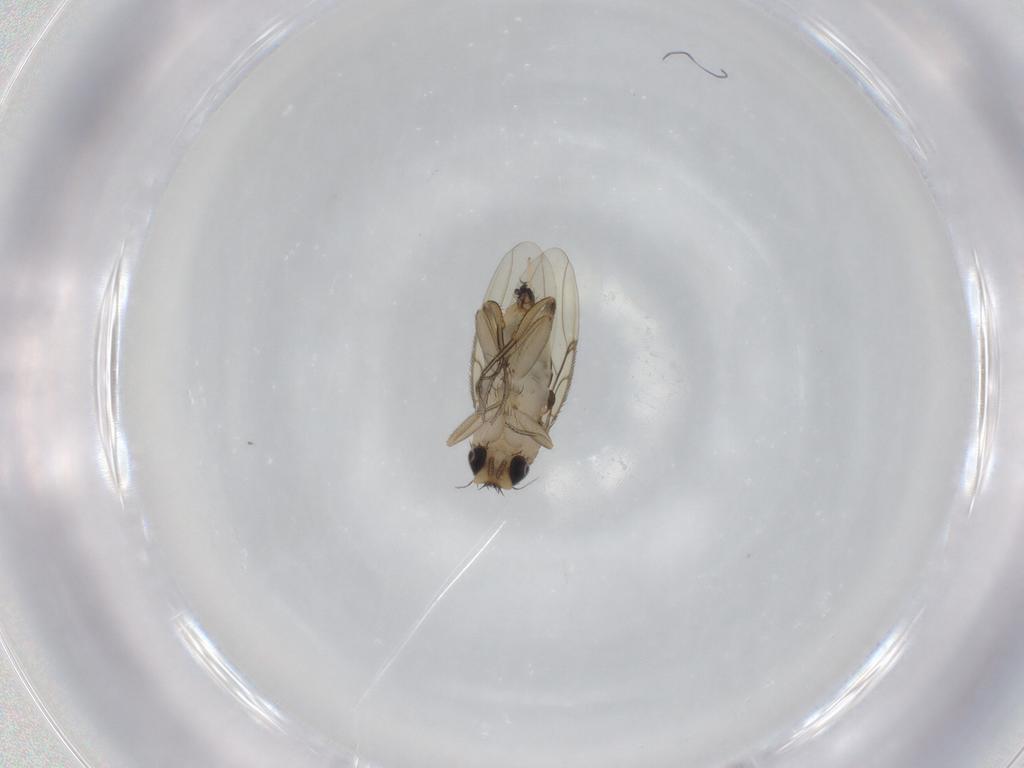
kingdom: Animalia
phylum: Arthropoda
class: Insecta
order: Diptera
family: Phoridae
